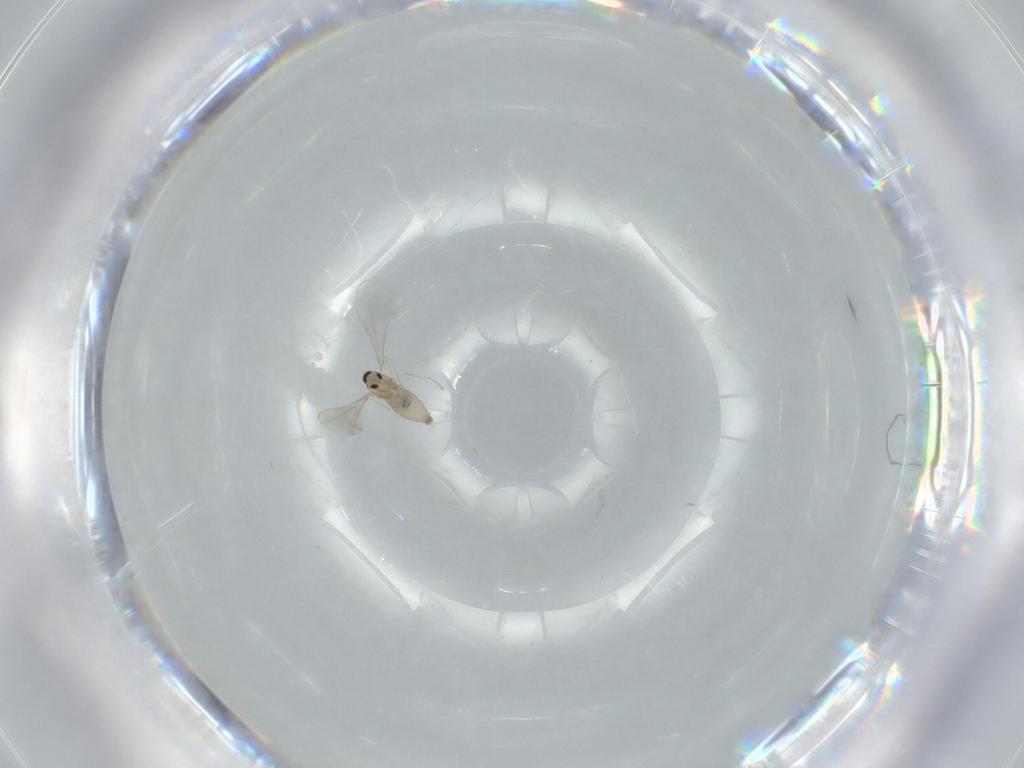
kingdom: Animalia
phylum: Arthropoda
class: Insecta
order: Diptera
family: Cecidomyiidae
